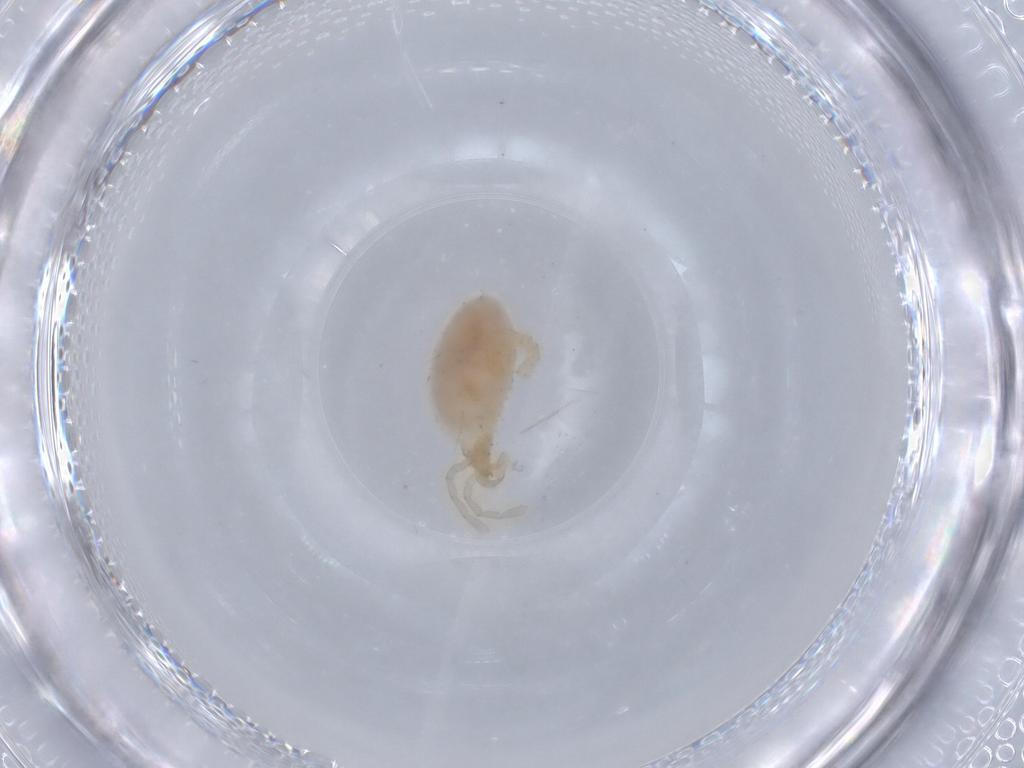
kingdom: Animalia
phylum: Arthropoda
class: Arachnida
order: Trombidiformes
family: Trombidiidae
